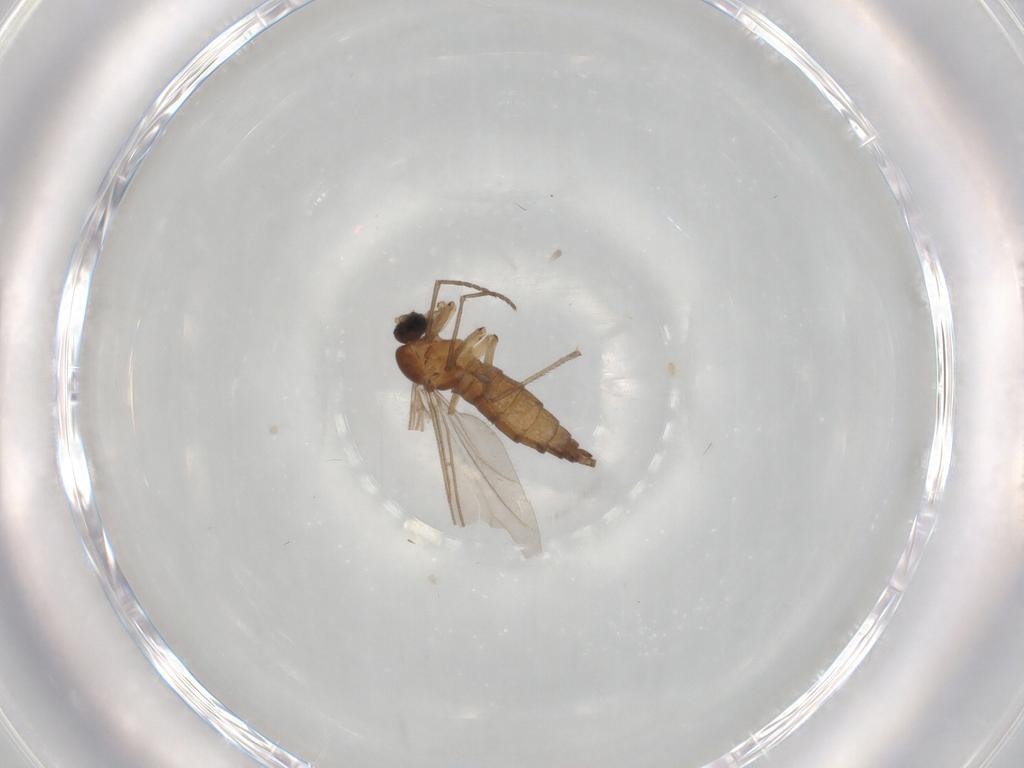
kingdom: Animalia
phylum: Arthropoda
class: Insecta
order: Diptera
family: Sciaridae
